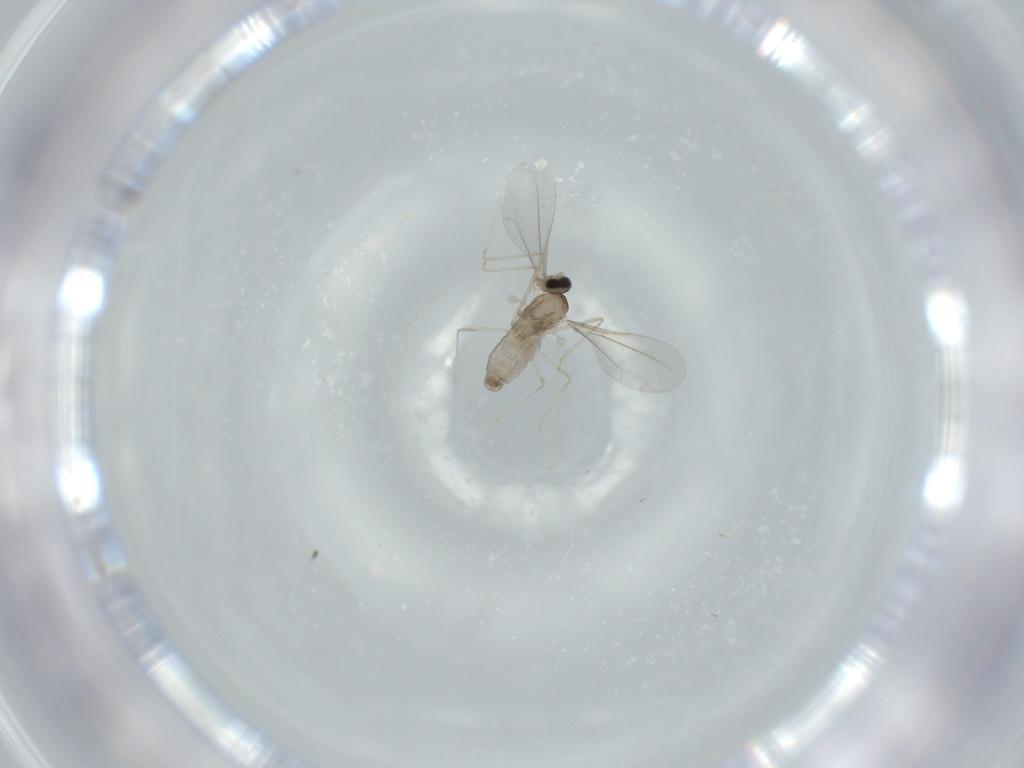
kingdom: Animalia
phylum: Arthropoda
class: Insecta
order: Diptera
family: Cecidomyiidae
